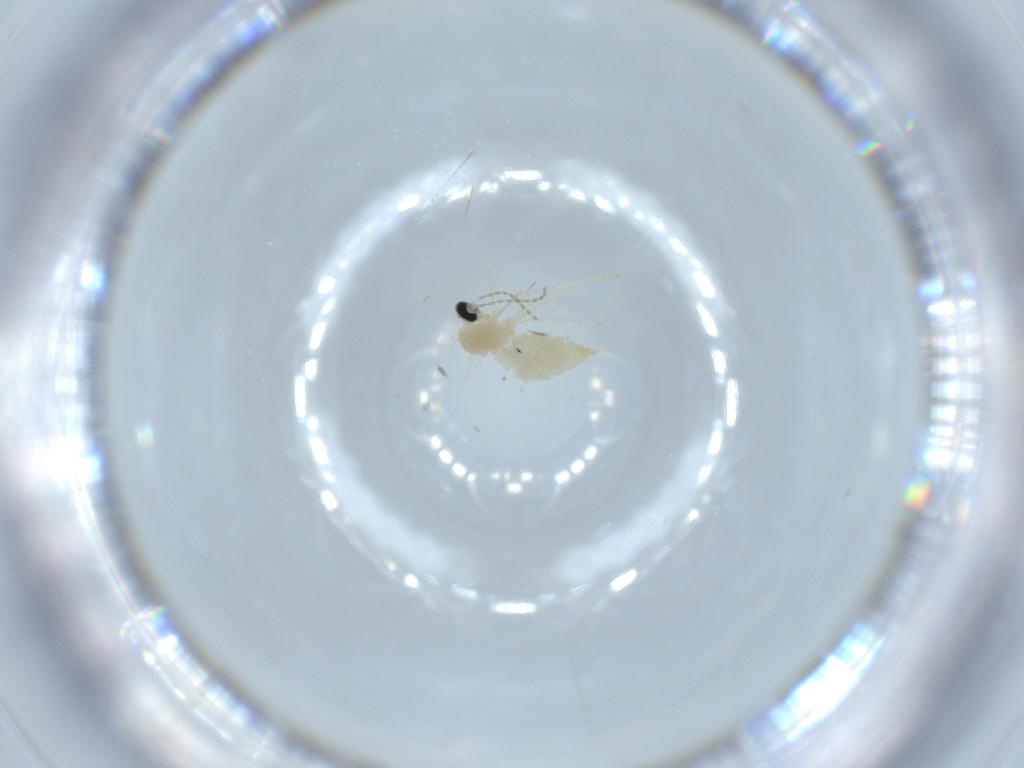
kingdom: Animalia
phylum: Arthropoda
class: Insecta
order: Diptera
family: Cecidomyiidae
